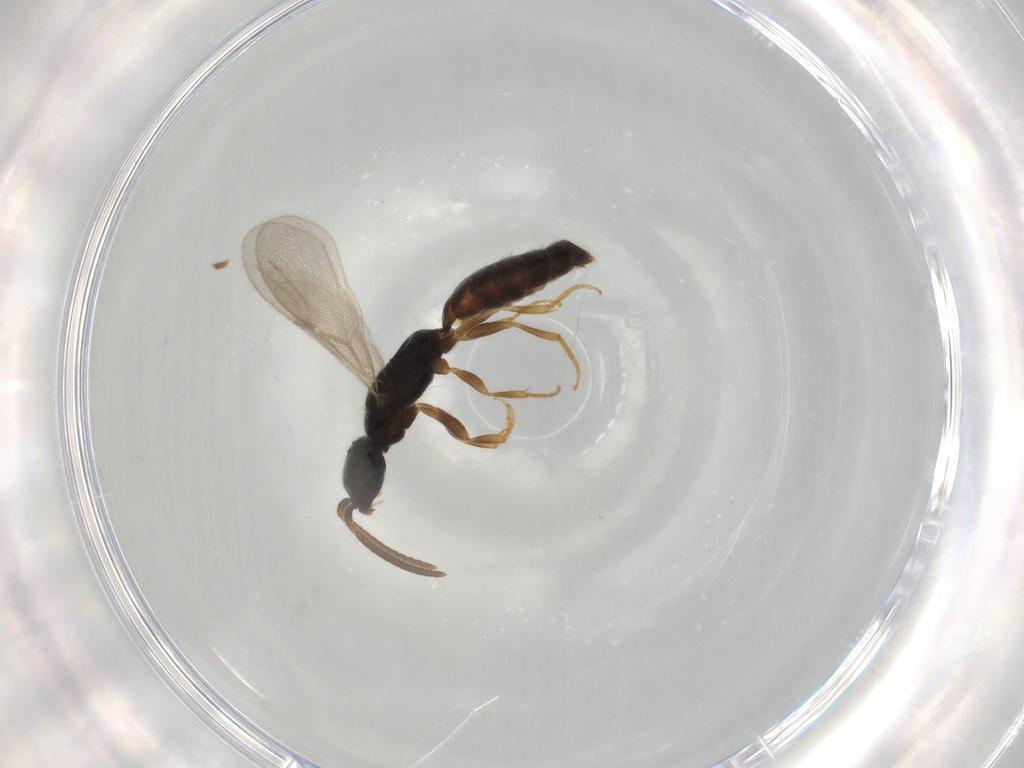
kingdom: Animalia
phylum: Arthropoda
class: Insecta
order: Hymenoptera
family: Bethylidae
